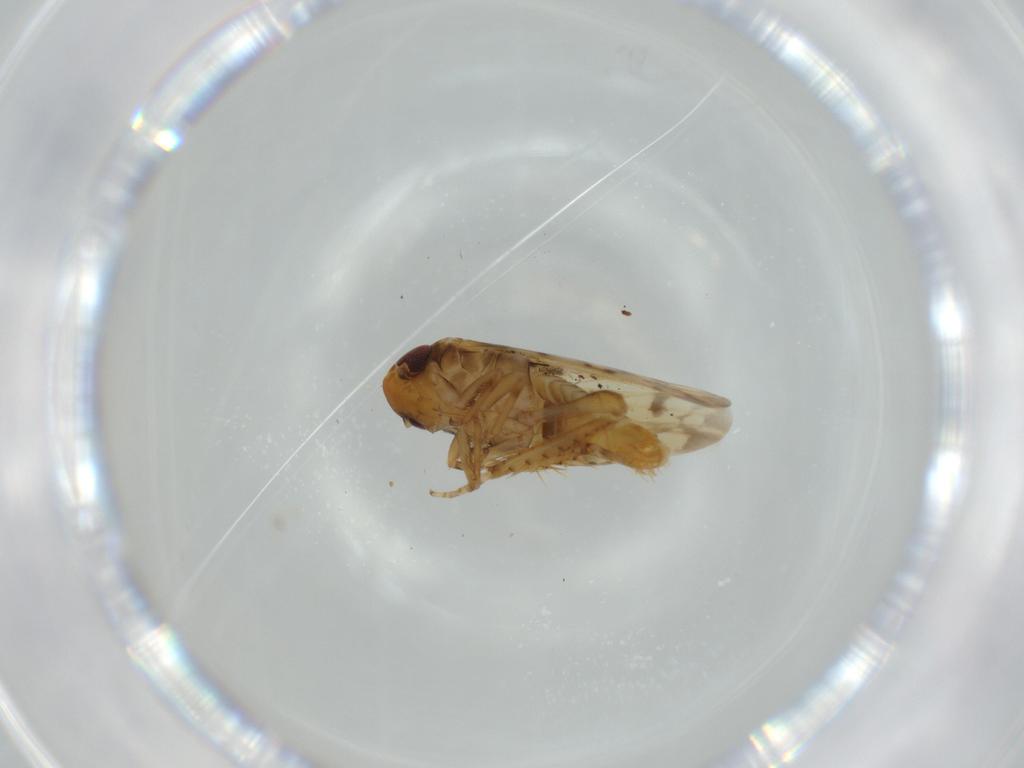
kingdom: Animalia
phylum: Arthropoda
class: Insecta
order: Hemiptera
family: Cicadellidae
